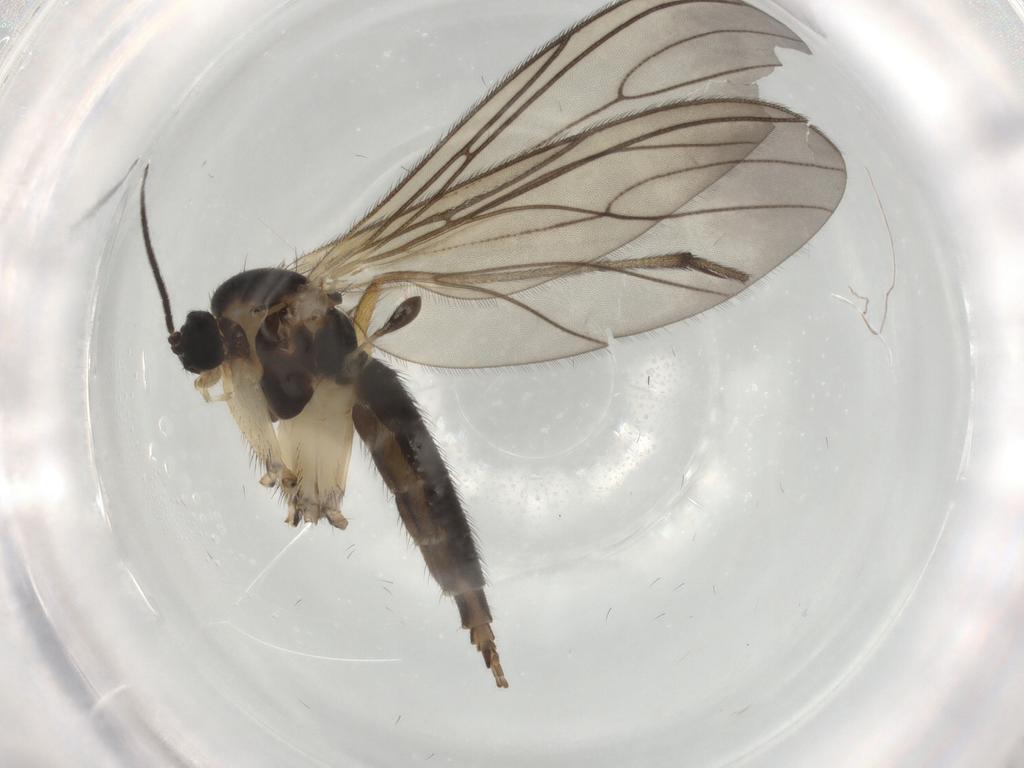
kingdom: Animalia
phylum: Arthropoda
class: Insecta
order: Diptera
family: Sciaridae
